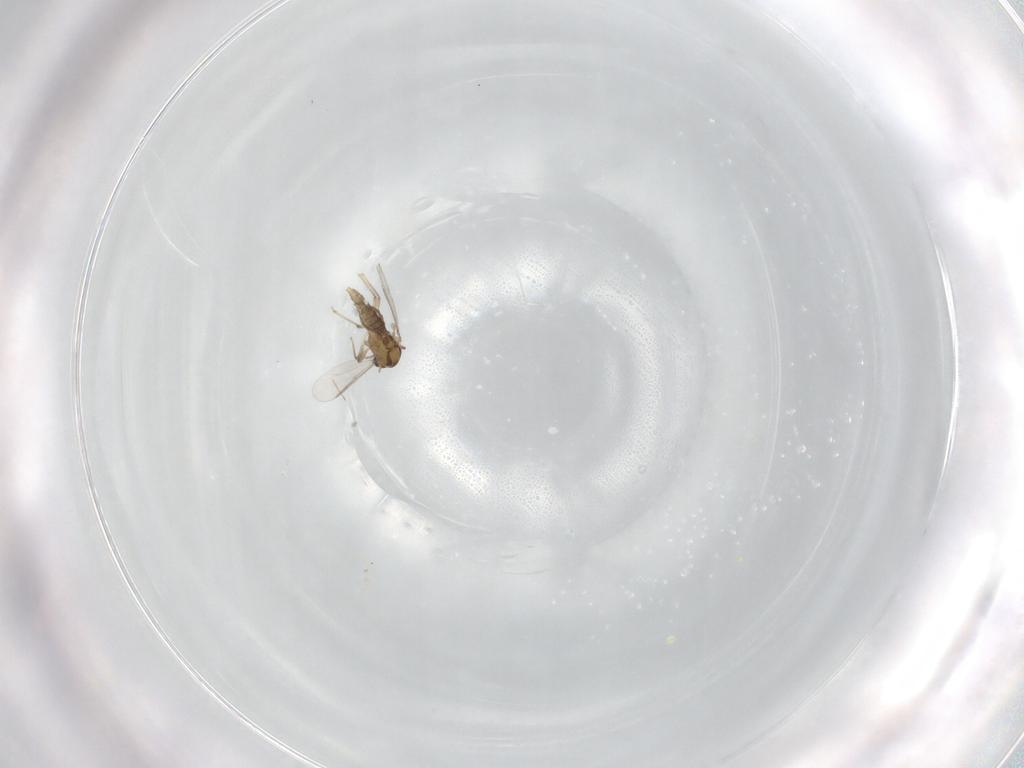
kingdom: Animalia
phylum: Arthropoda
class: Insecta
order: Diptera
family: Chironomidae
